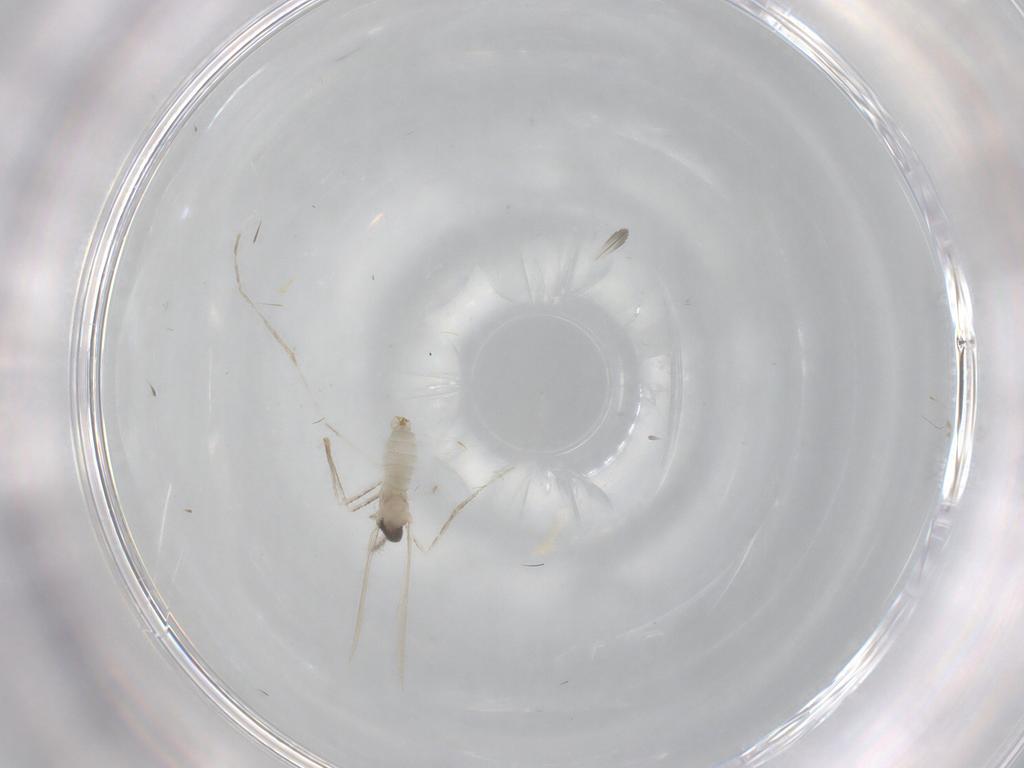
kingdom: Animalia
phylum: Arthropoda
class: Insecta
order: Diptera
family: Cecidomyiidae
